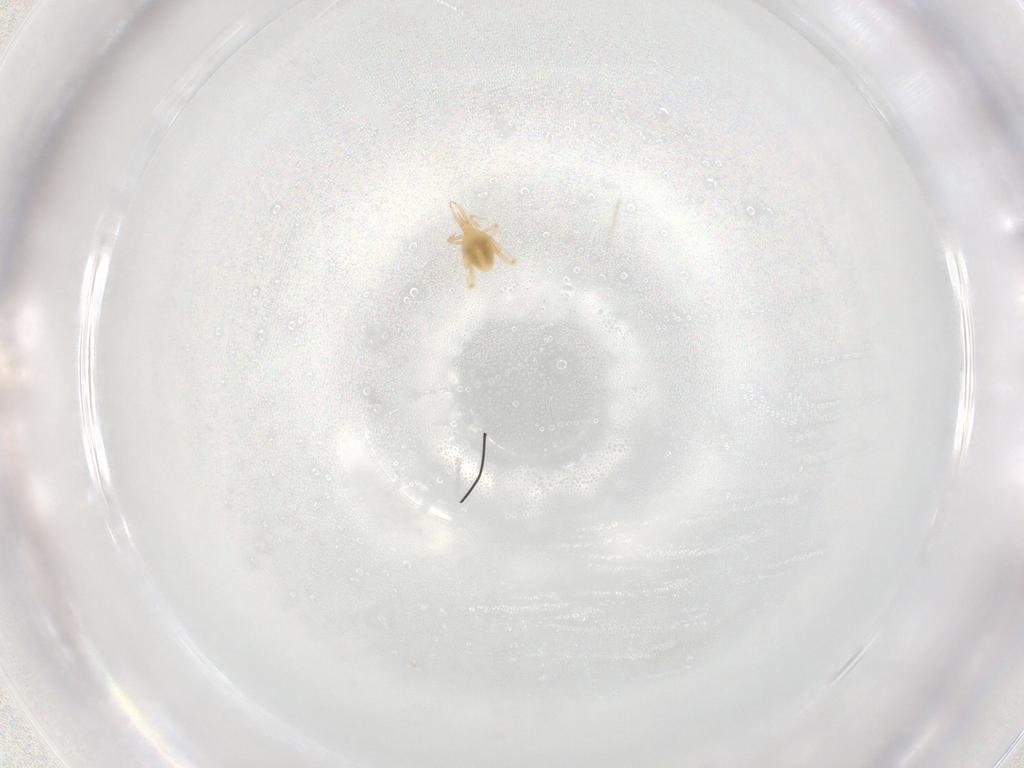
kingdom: Animalia
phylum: Arthropoda
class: Arachnida
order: Trombidiformes
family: Cunaxidae
